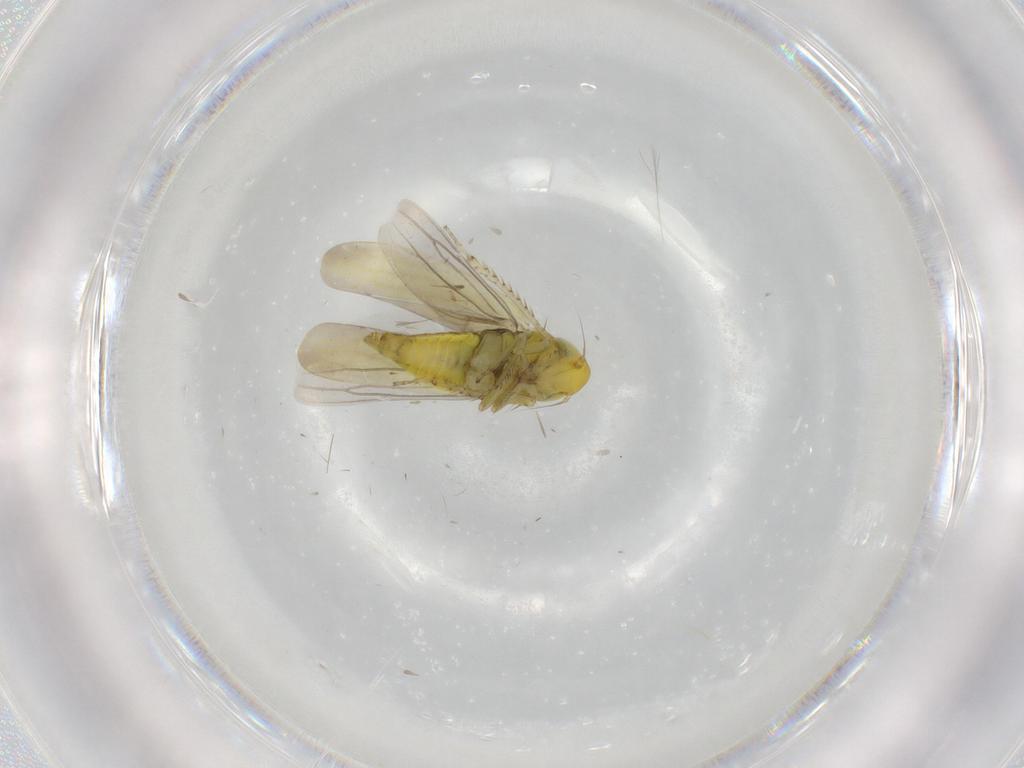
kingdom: Animalia
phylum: Arthropoda
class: Insecta
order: Hemiptera
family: Cicadellidae
